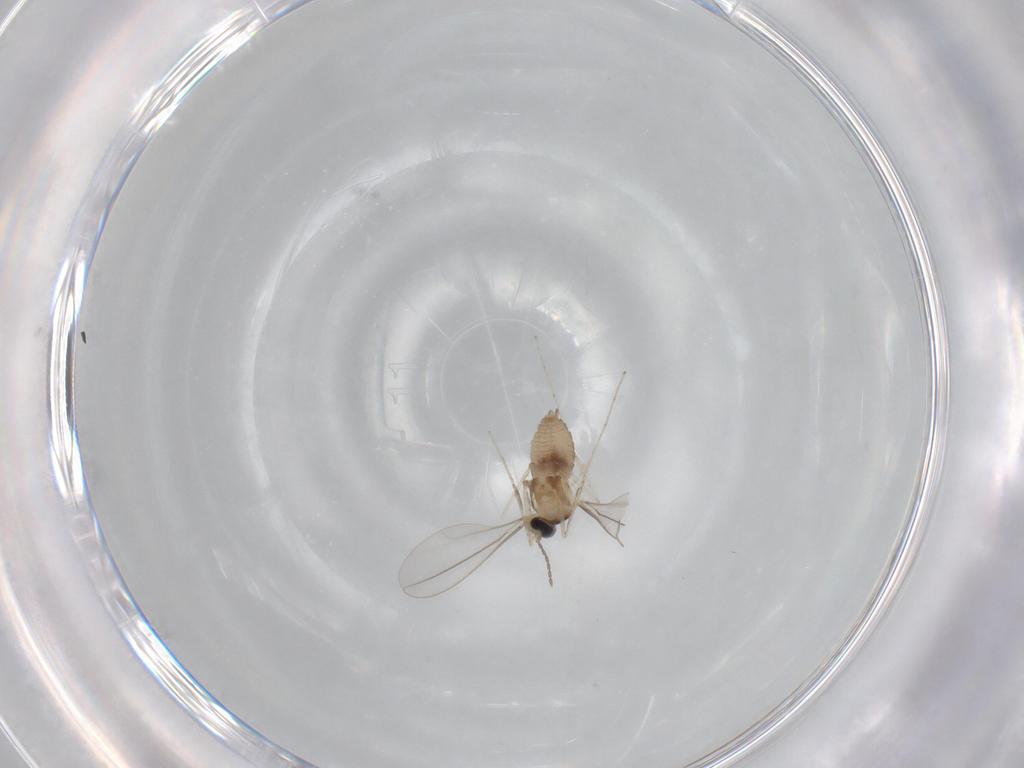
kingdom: Animalia
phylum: Arthropoda
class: Insecta
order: Diptera
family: Cecidomyiidae
